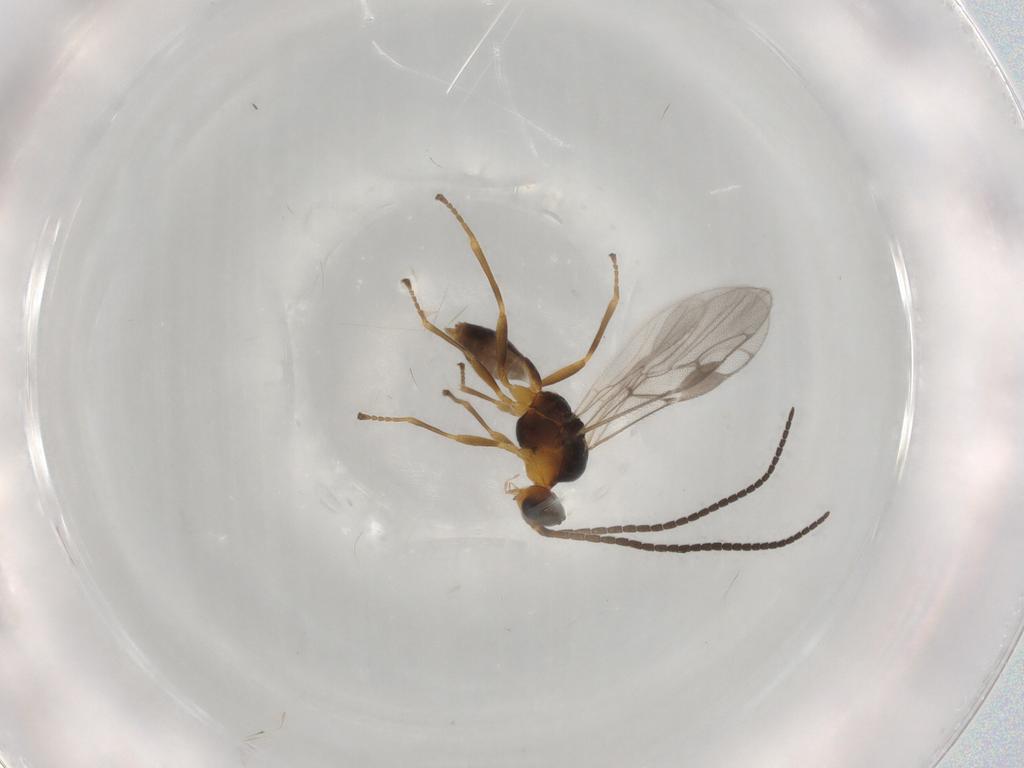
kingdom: Animalia
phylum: Arthropoda
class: Insecta
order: Hymenoptera
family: Braconidae
